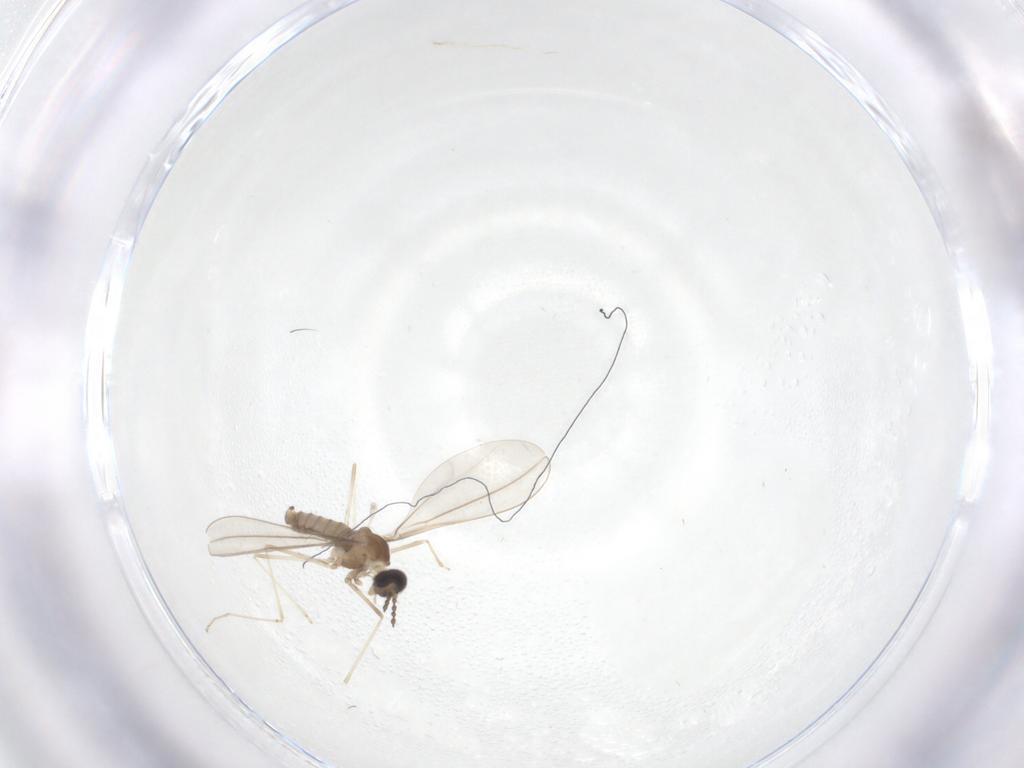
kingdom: Animalia
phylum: Arthropoda
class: Insecta
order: Diptera
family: Cecidomyiidae
